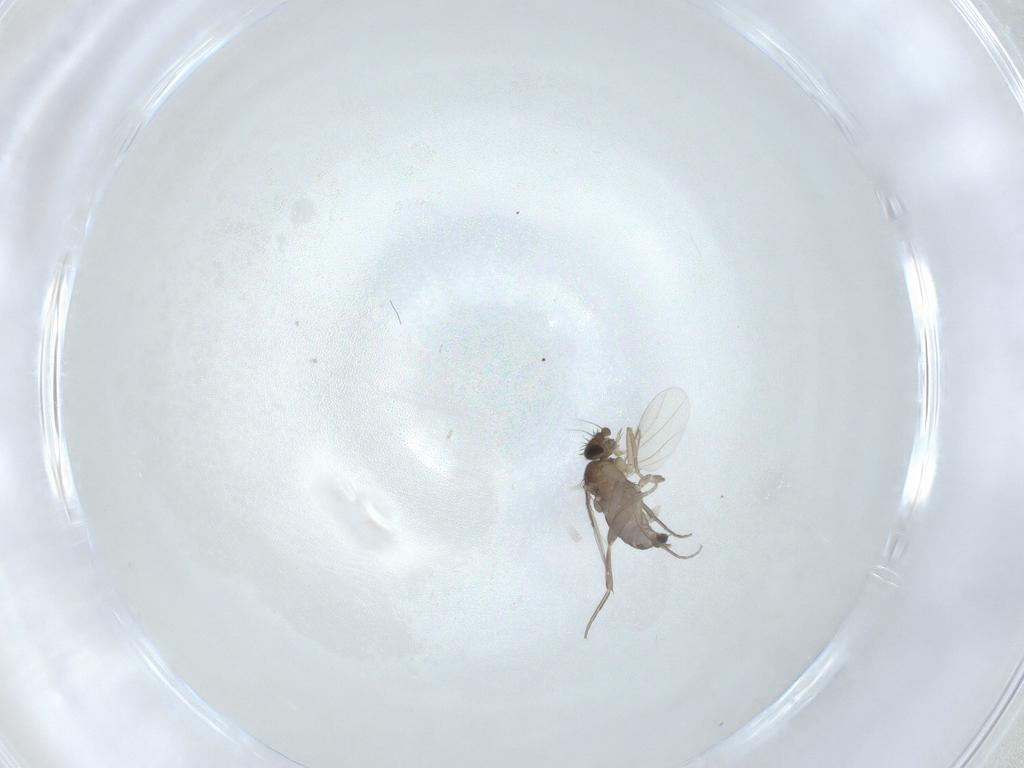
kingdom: Animalia
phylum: Arthropoda
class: Insecta
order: Diptera
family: Phoridae
